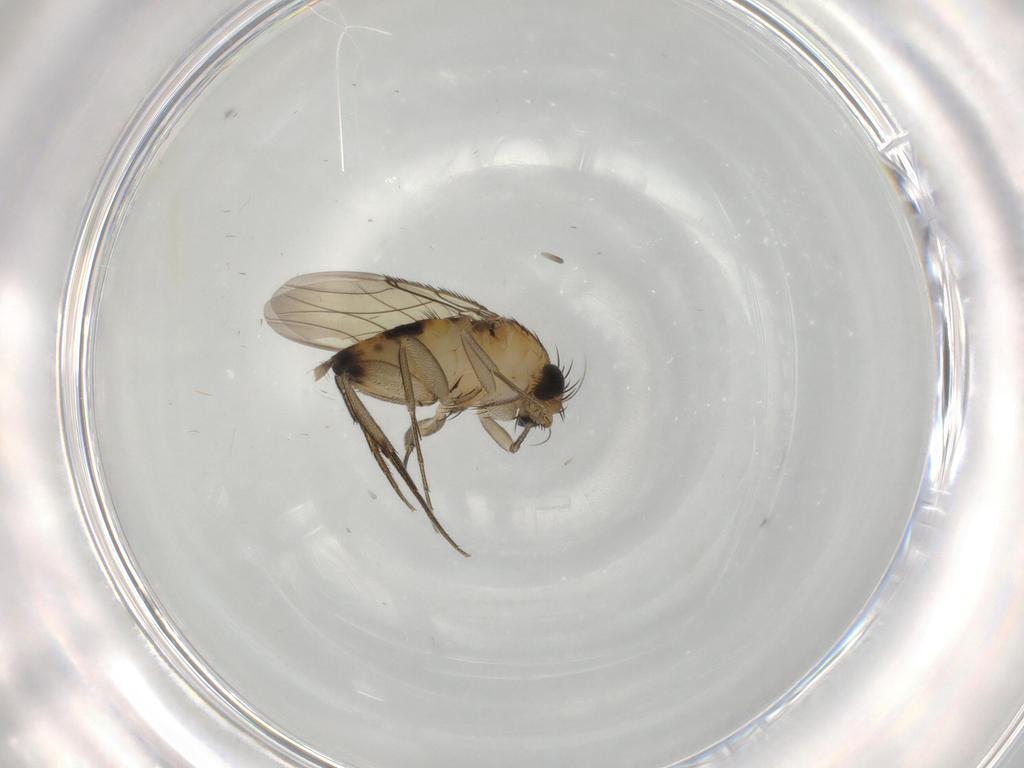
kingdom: Animalia
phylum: Arthropoda
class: Insecta
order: Diptera
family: Phoridae
